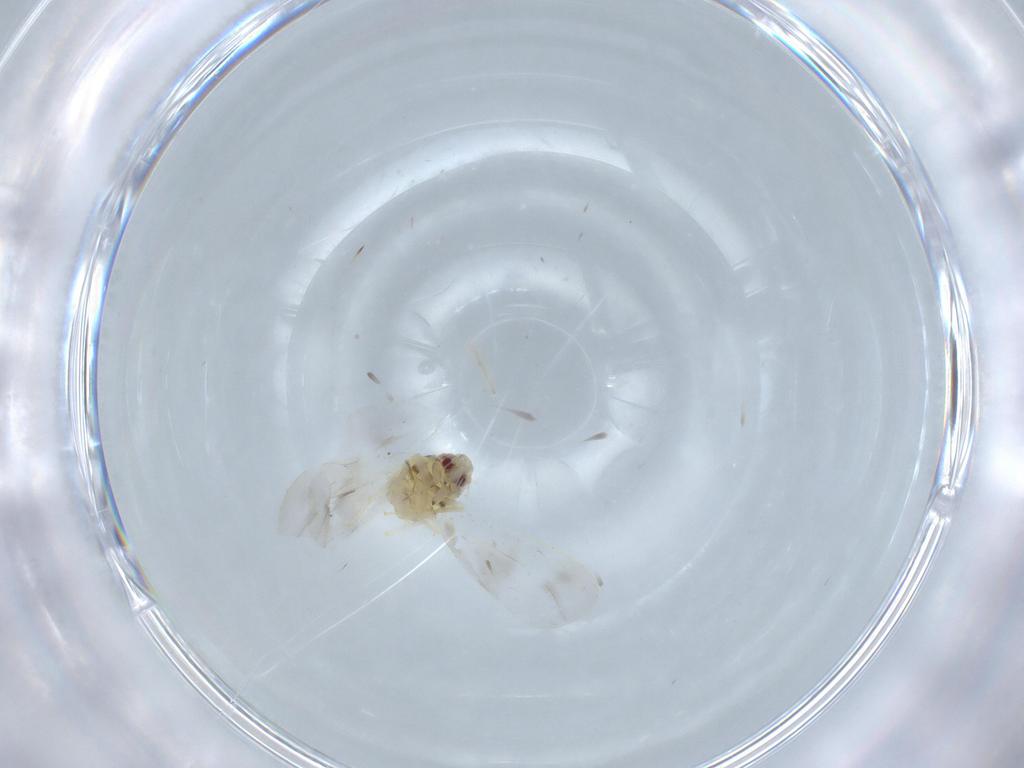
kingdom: Animalia
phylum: Arthropoda
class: Insecta
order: Hemiptera
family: Aleyrodidae
